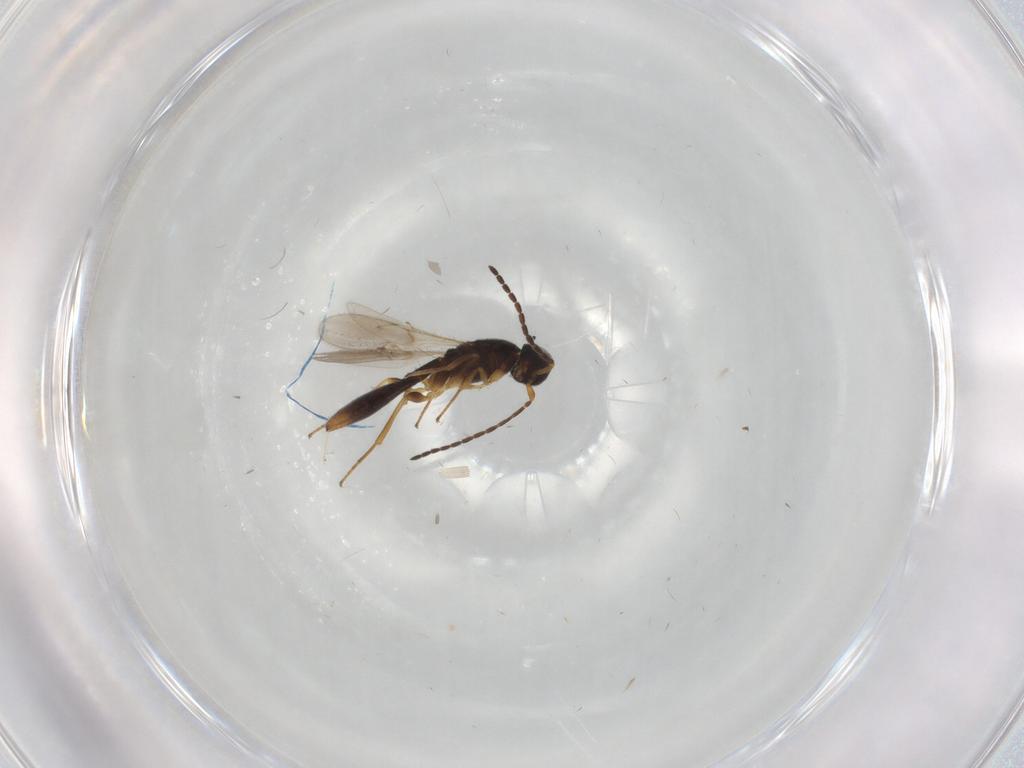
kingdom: Animalia
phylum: Arthropoda
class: Insecta
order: Hymenoptera
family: Scelionidae
